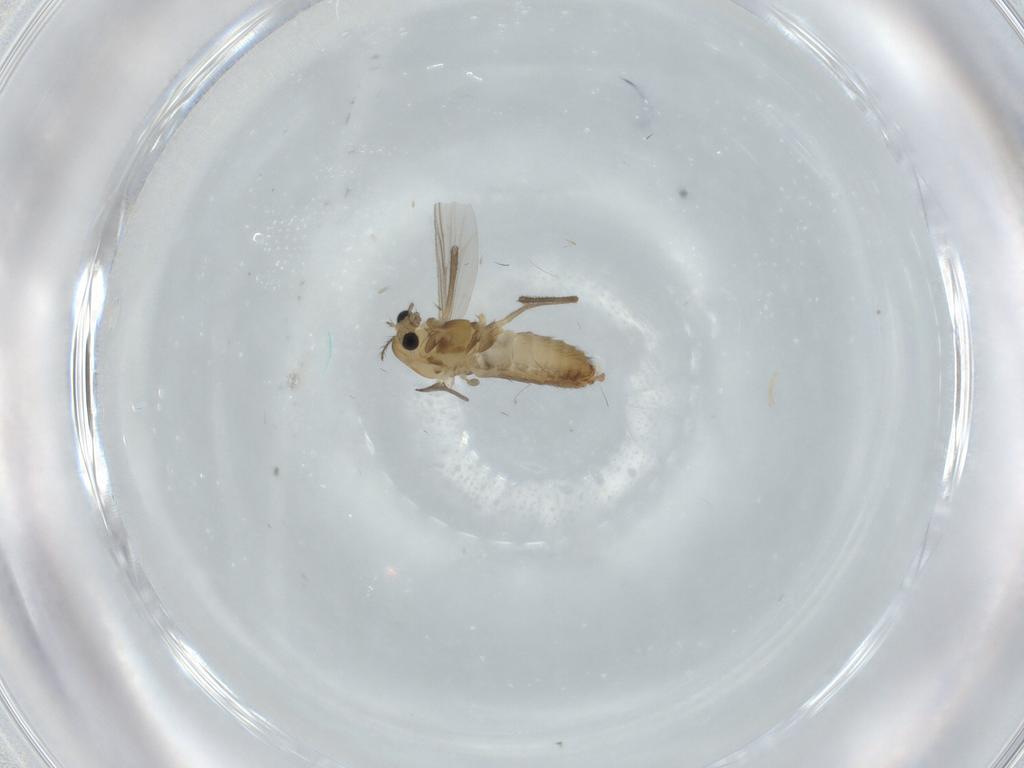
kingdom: Animalia
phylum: Arthropoda
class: Insecta
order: Diptera
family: Chironomidae
